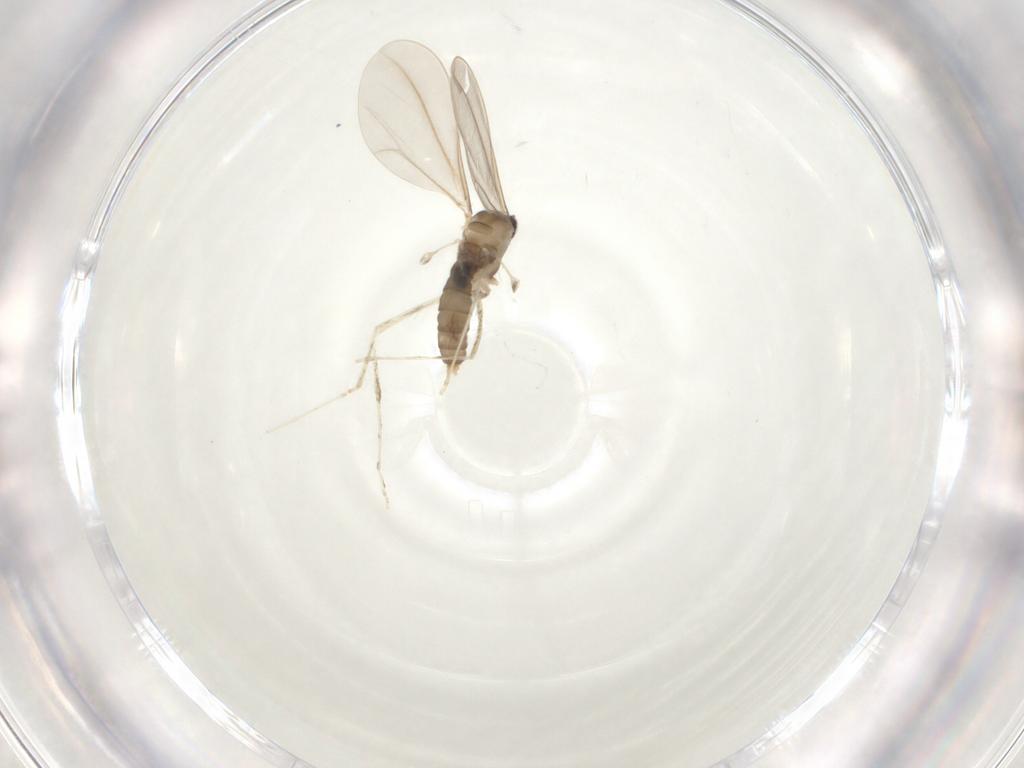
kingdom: Animalia
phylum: Arthropoda
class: Insecta
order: Diptera
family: Cecidomyiidae
